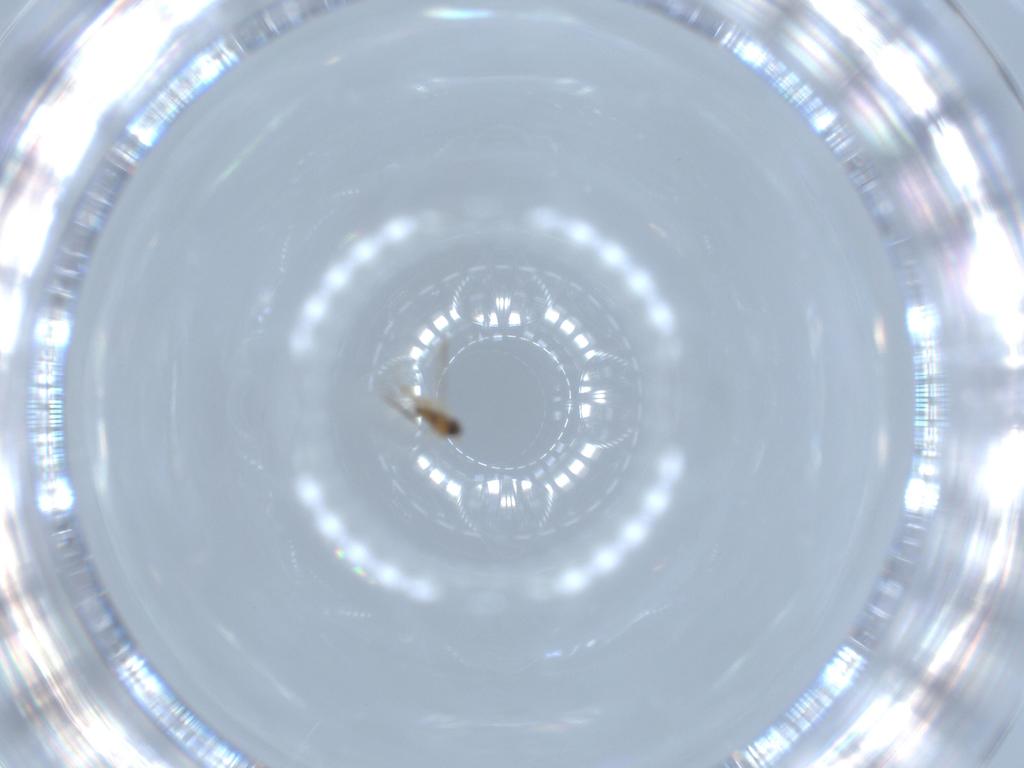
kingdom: Animalia
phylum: Arthropoda
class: Insecta
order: Diptera
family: Cecidomyiidae
